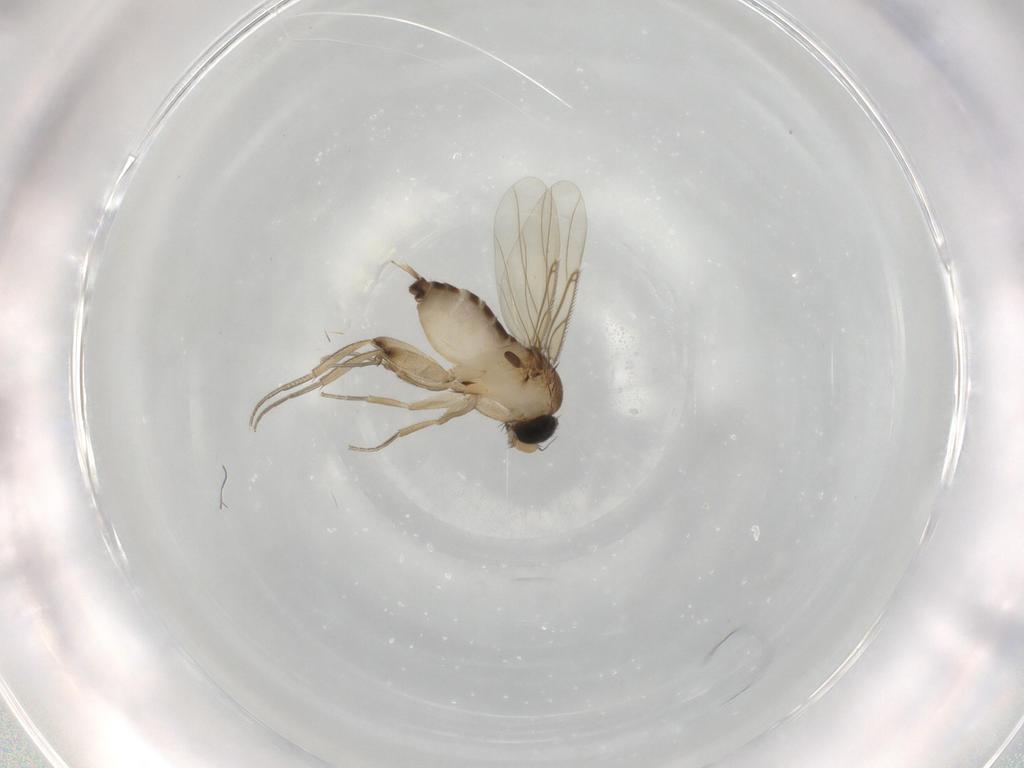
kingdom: Animalia
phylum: Arthropoda
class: Insecta
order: Diptera
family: Phoridae
